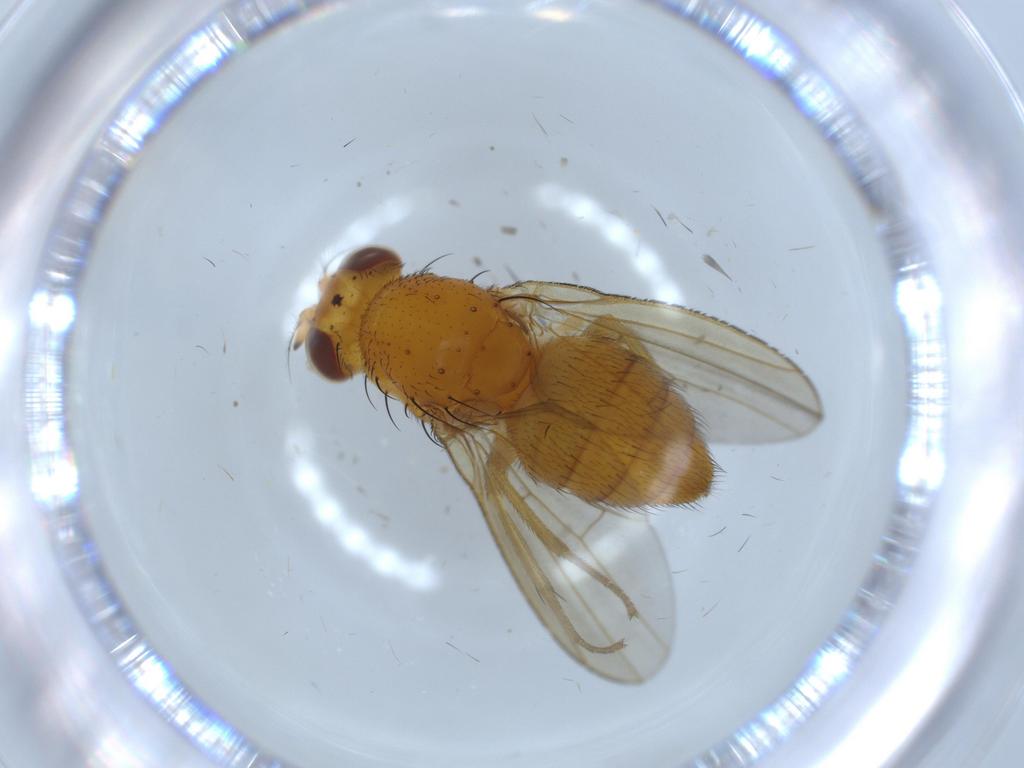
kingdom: Animalia
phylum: Arthropoda
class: Insecta
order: Diptera
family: Lauxaniidae
